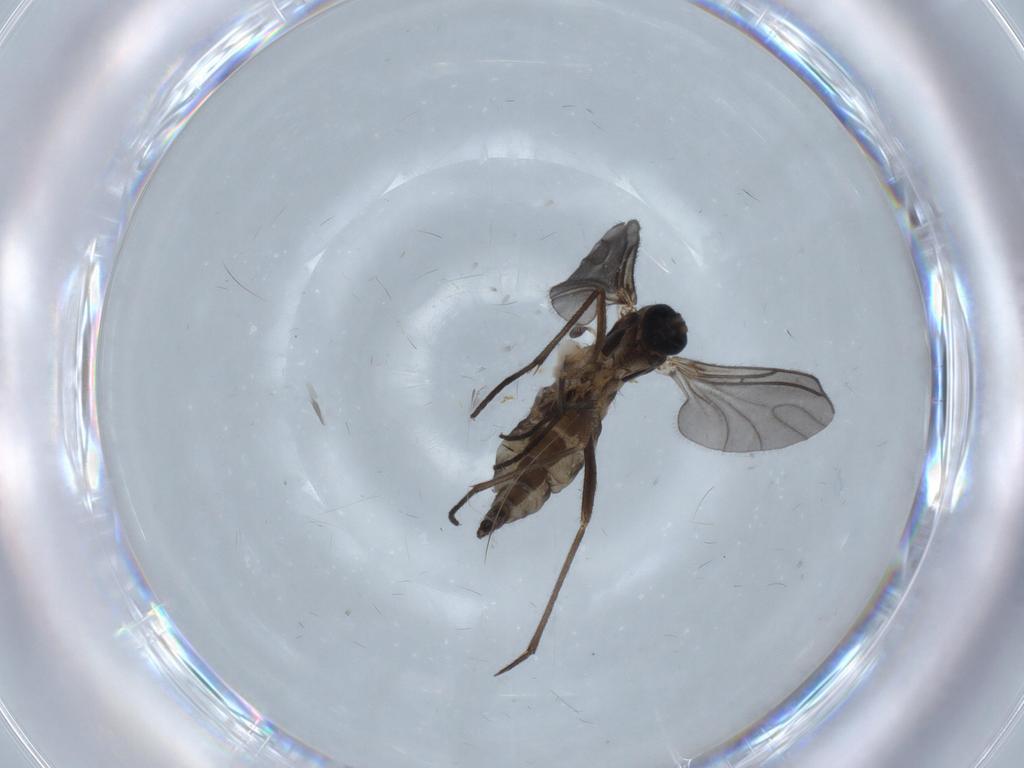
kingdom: Animalia
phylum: Arthropoda
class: Insecta
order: Diptera
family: Sciaridae
